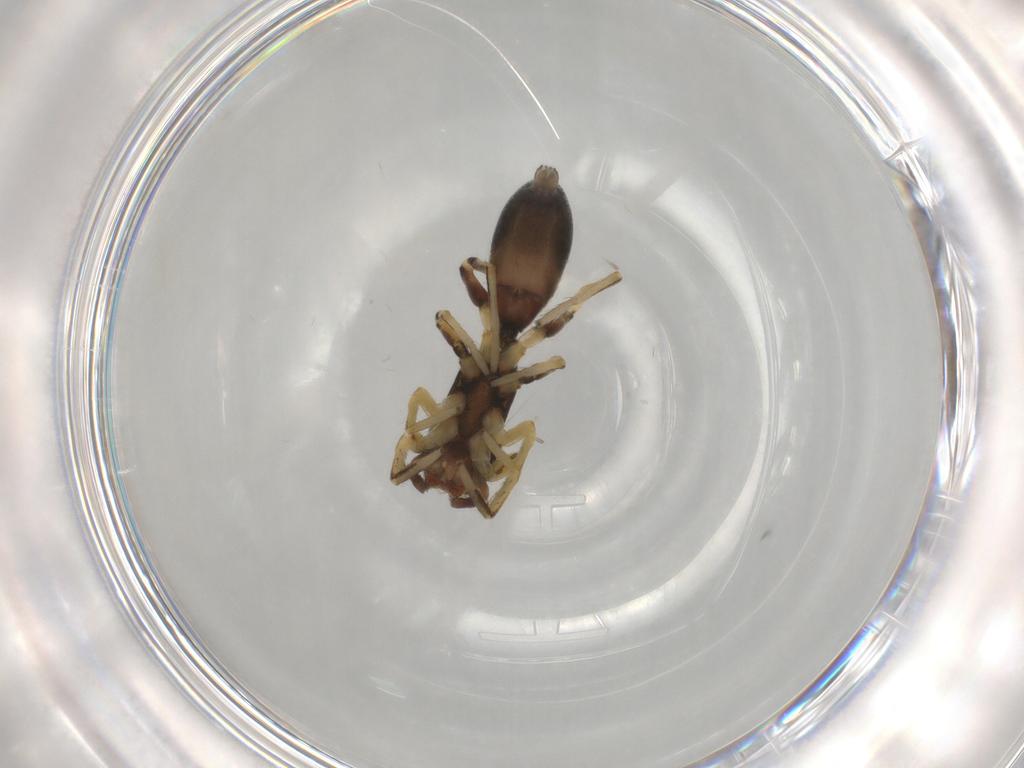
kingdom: Animalia
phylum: Arthropoda
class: Arachnida
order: Araneae
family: Salticidae
